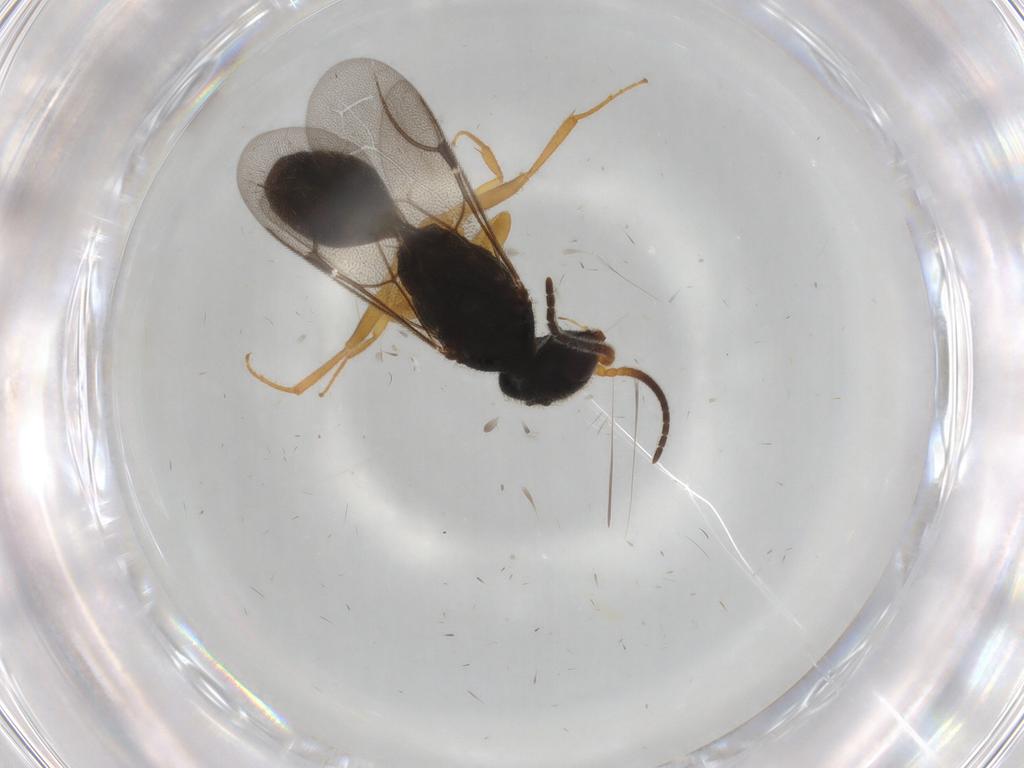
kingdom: Animalia
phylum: Arthropoda
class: Insecta
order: Hymenoptera
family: Bethylidae
